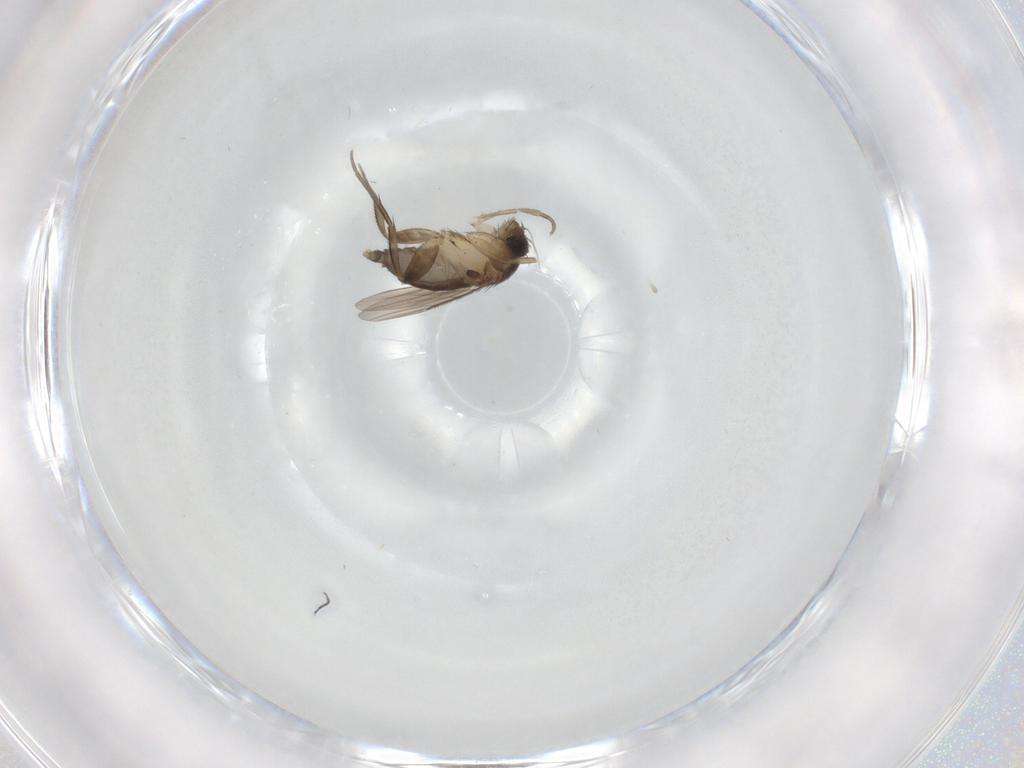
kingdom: Animalia
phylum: Arthropoda
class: Insecta
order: Diptera
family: Phoridae
